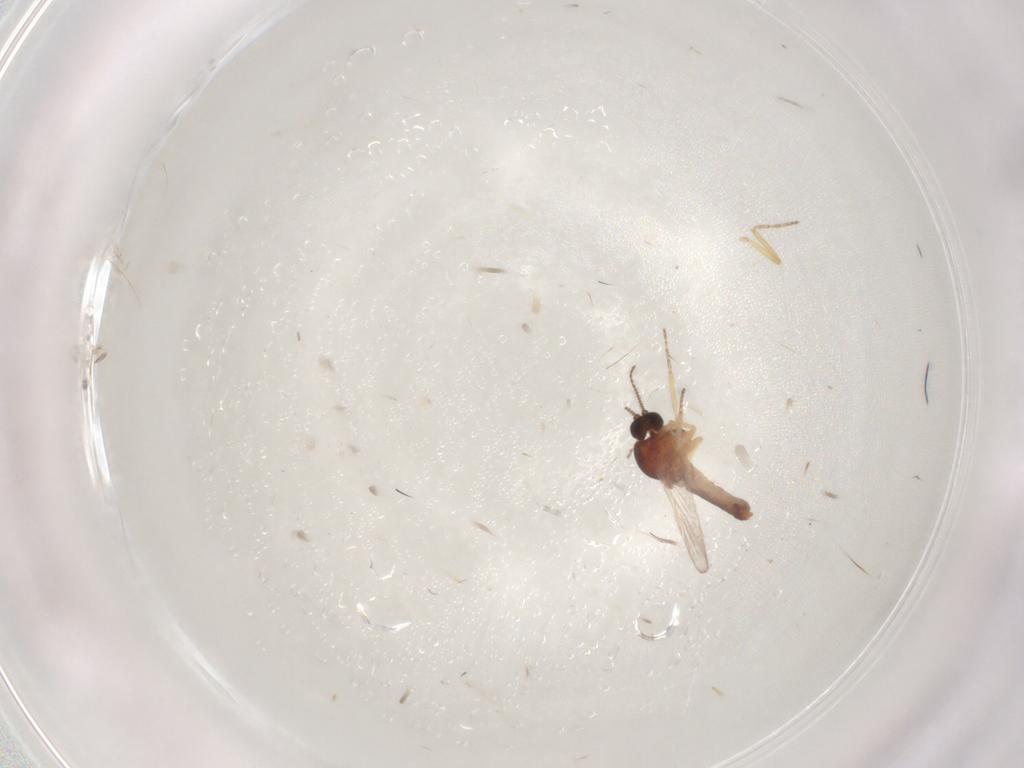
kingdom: Animalia
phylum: Arthropoda
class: Insecta
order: Diptera
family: Ceratopogonidae
